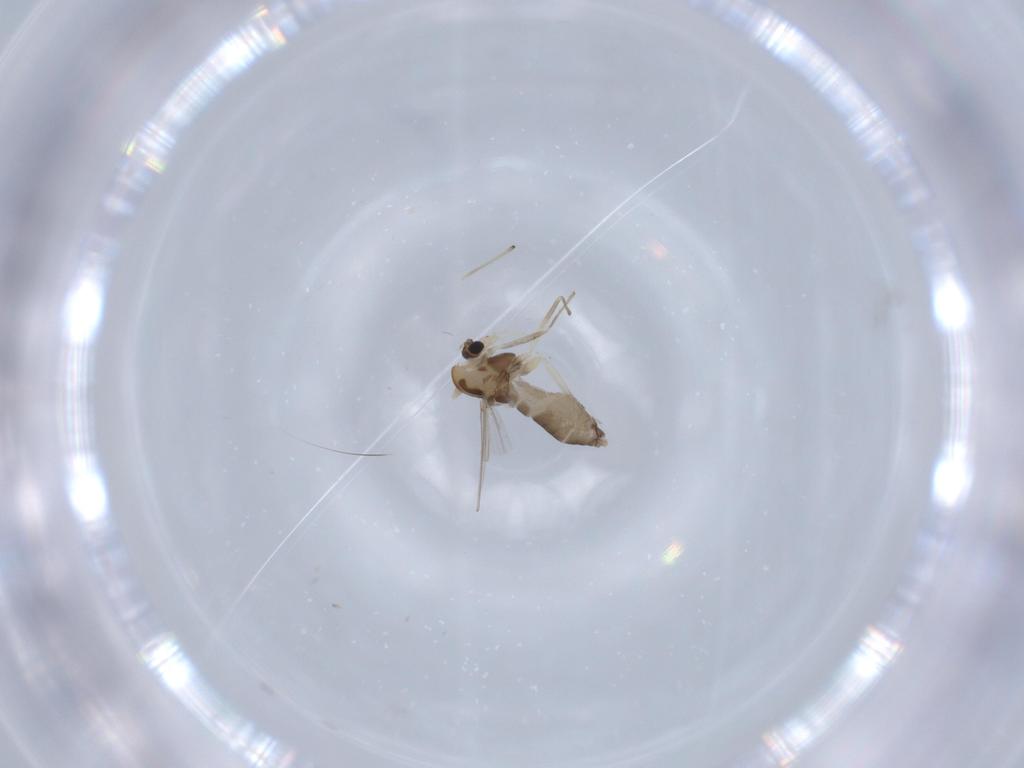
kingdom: Animalia
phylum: Arthropoda
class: Insecta
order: Diptera
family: Chironomidae
